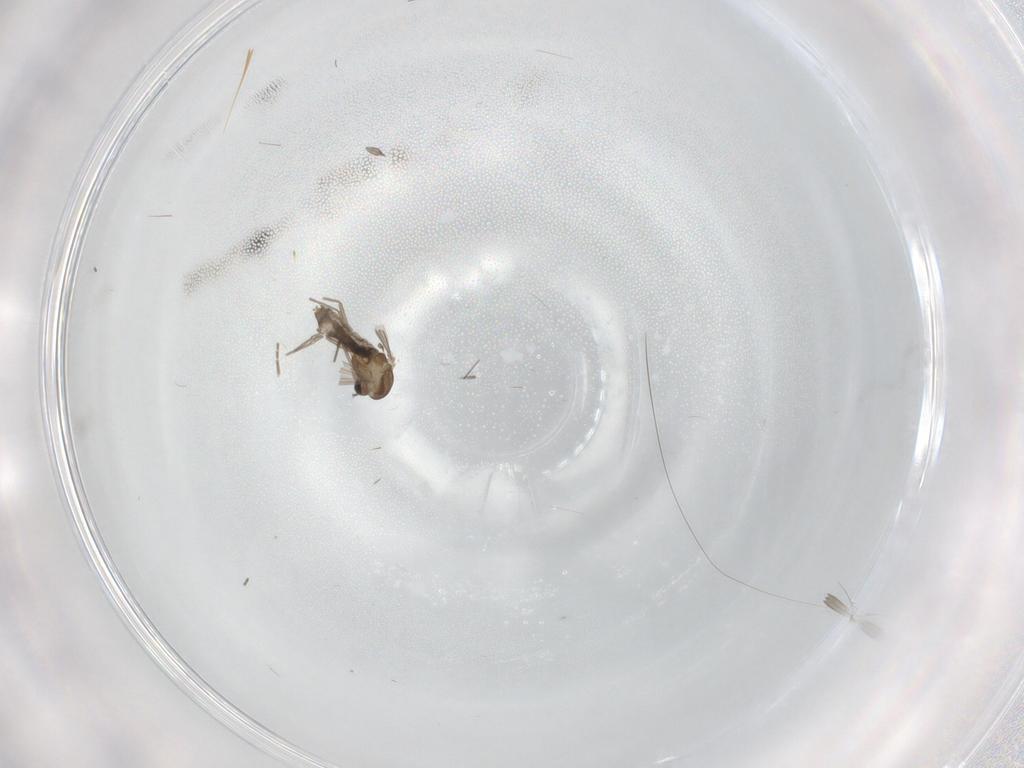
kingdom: Animalia
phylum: Arthropoda
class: Insecta
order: Diptera
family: Chironomidae
